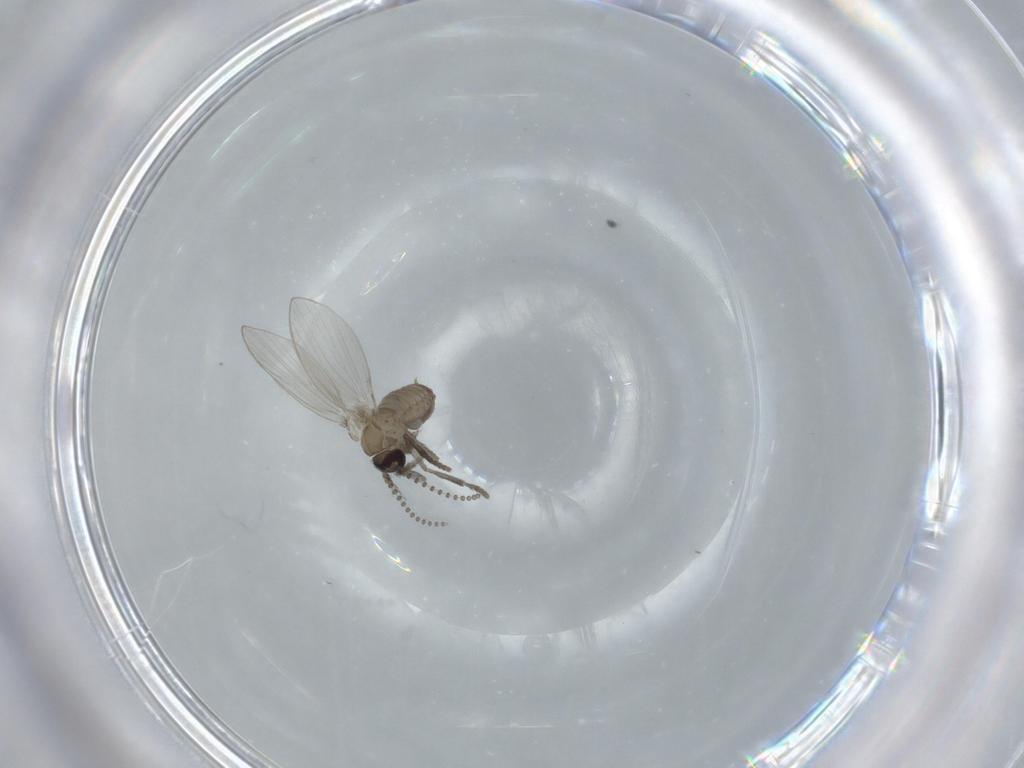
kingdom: Animalia
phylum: Arthropoda
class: Insecta
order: Diptera
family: Psychodidae
